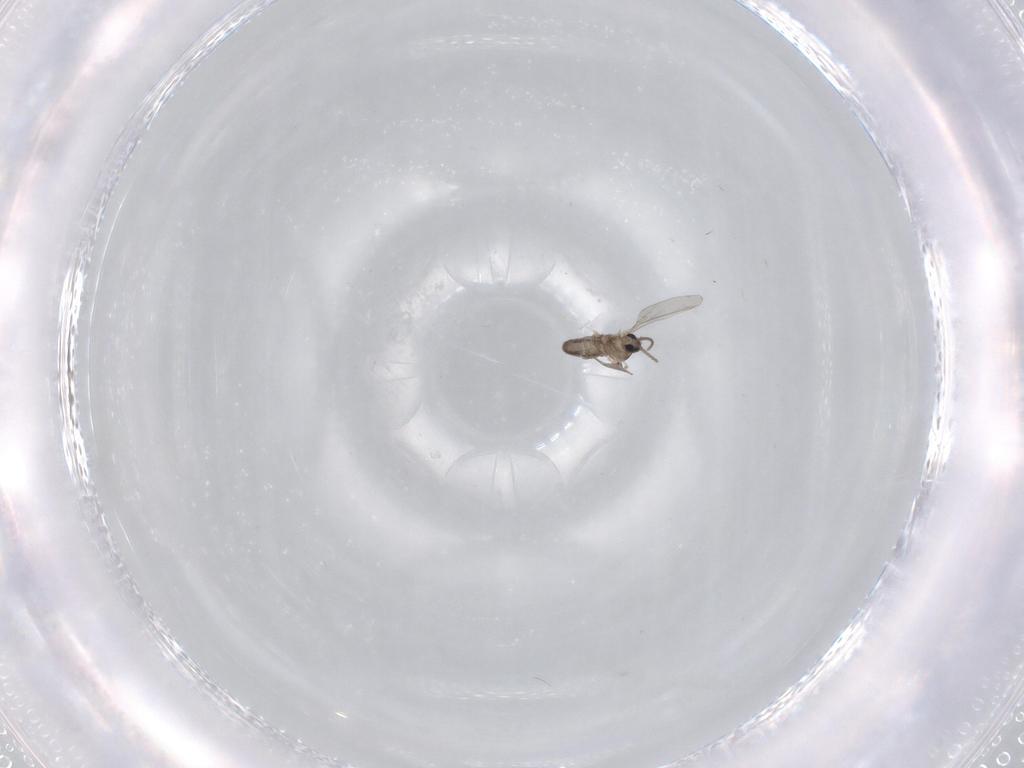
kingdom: Animalia
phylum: Arthropoda
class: Insecta
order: Diptera
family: Cecidomyiidae
